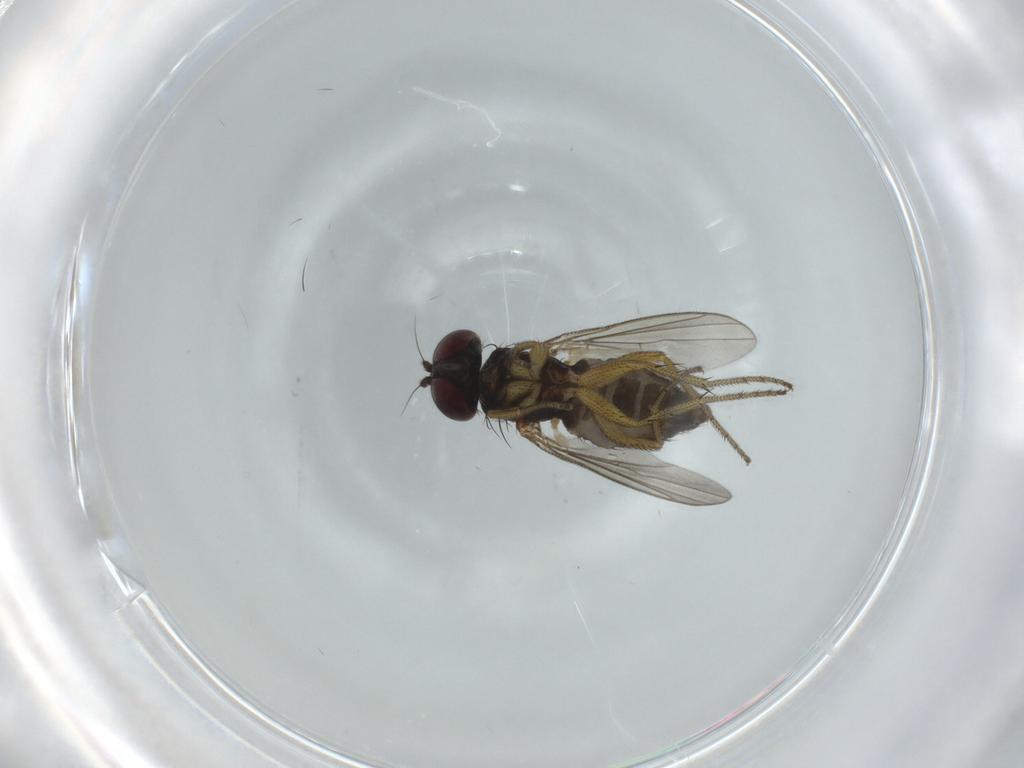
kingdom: Animalia
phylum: Arthropoda
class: Insecta
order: Diptera
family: Dolichopodidae
